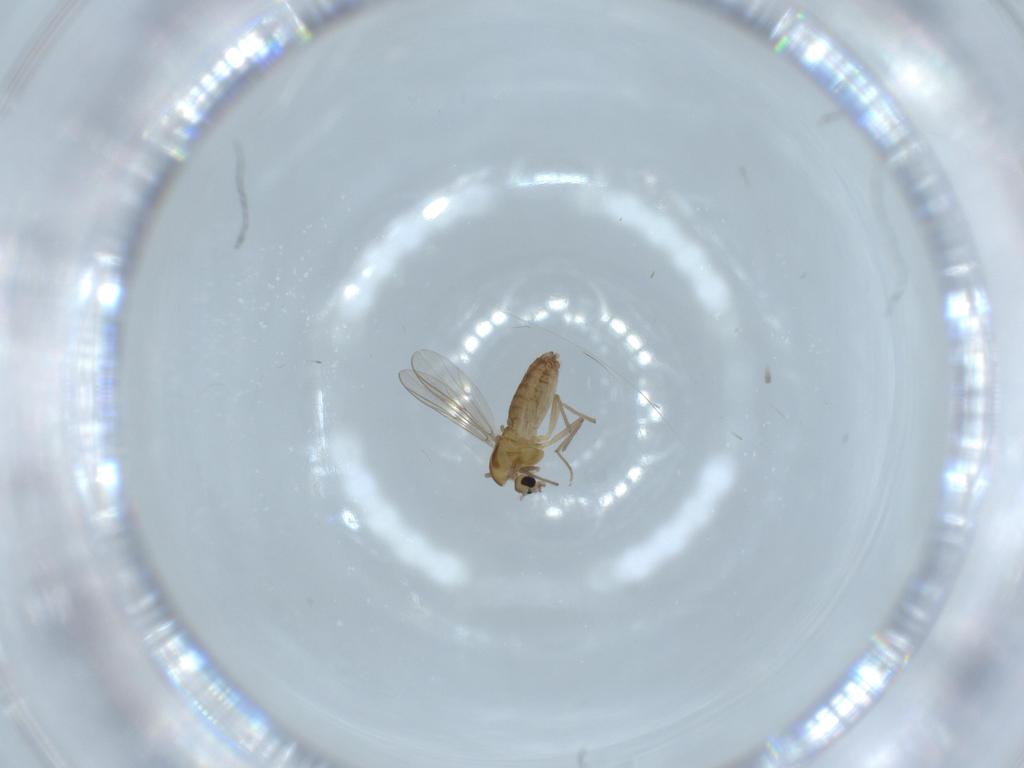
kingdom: Animalia
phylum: Arthropoda
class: Insecta
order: Diptera
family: Chironomidae
